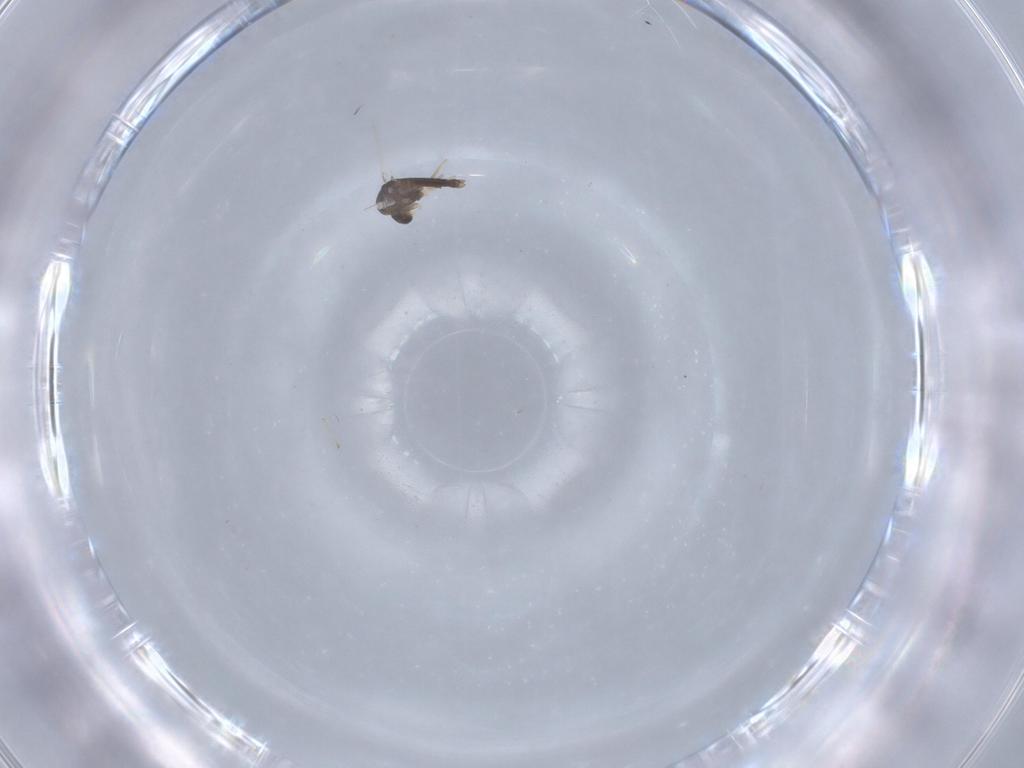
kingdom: Animalia
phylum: Arthropoda
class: Insecta
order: Diptera
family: Chironomidae
